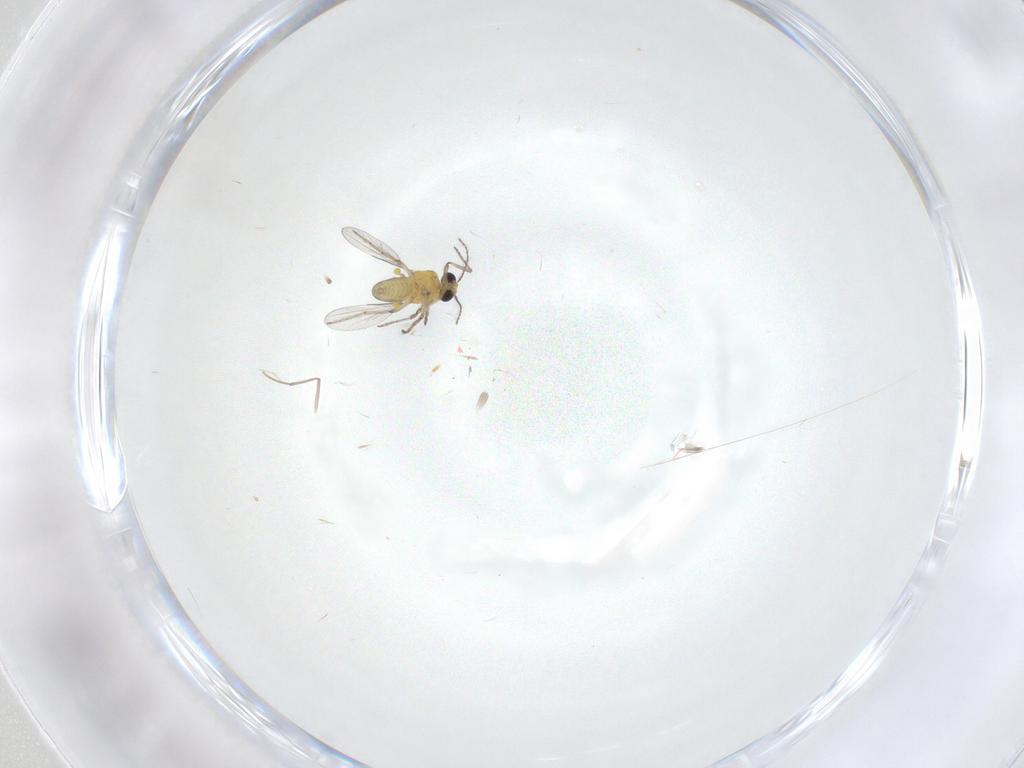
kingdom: Animalia
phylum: Arthropoda
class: Insecta
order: Diptera
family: Ceratopogonidae
